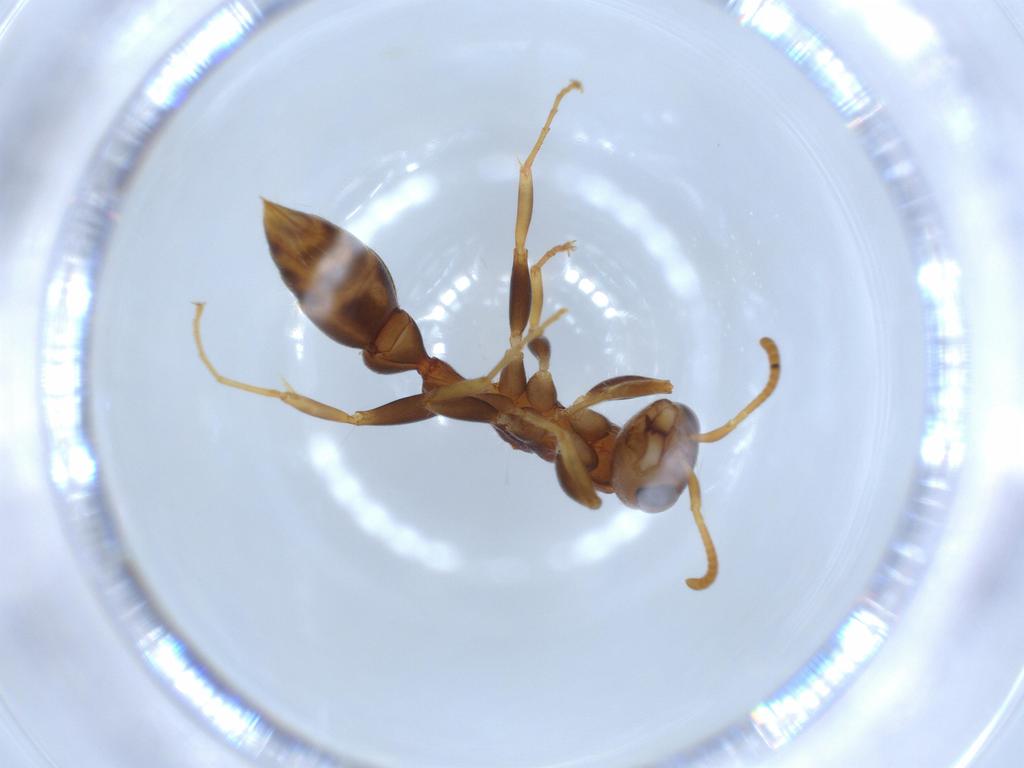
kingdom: Animalia
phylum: Arthropoda
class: Insecta
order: Hymenoptera
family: Formicidae
